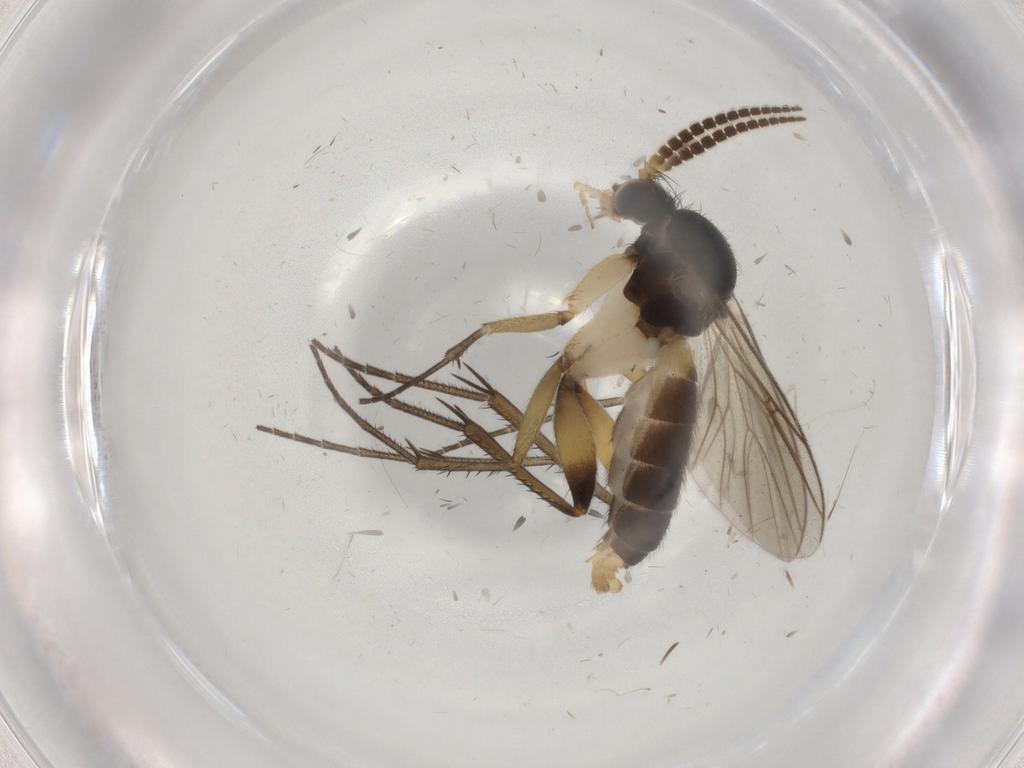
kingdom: Animalia
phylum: Arthropoda
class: Insecta
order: Diptera
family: Mycetophilidae
